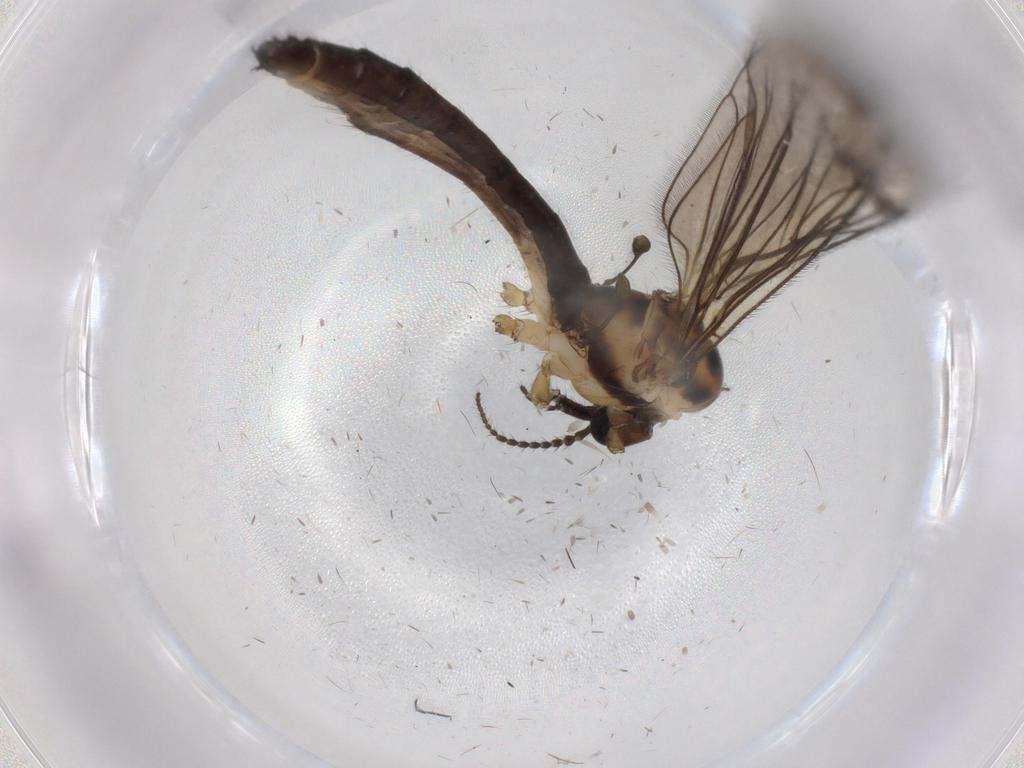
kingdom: Animalia
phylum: Arthropoda
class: Insecta
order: Diptera
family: Limoniidae
